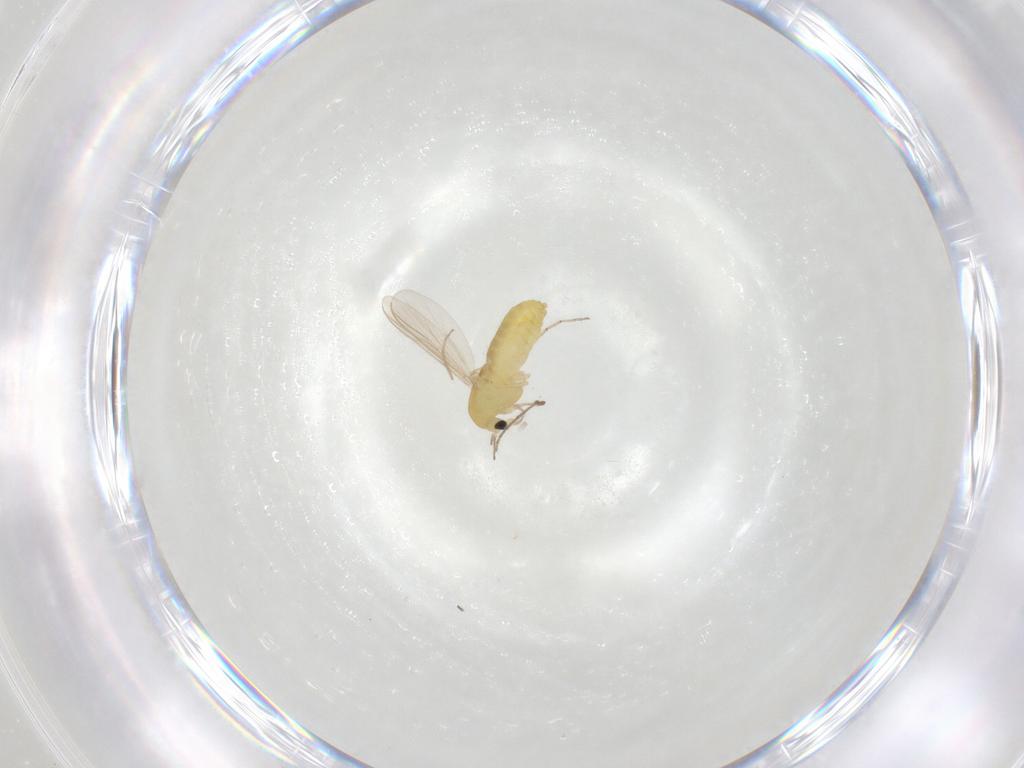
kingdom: Animalia
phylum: Arthropoda
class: Insecta
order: Diptera
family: Chironomidae
